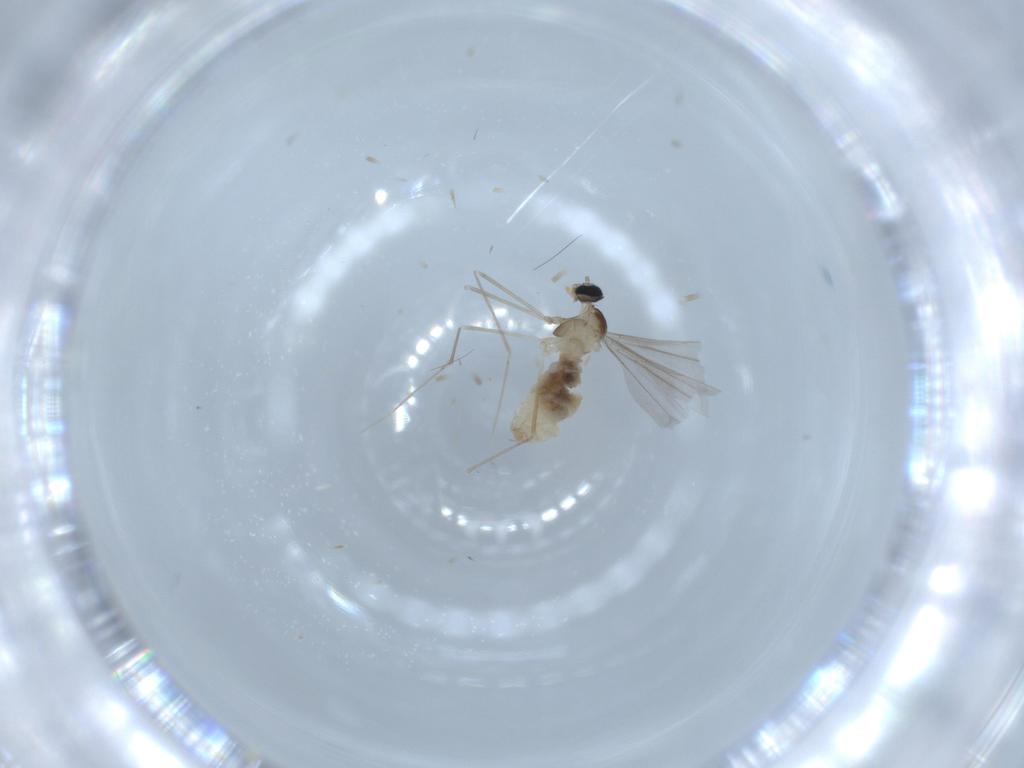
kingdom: Animalia
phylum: Arthropoda
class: Insecta
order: Diptera
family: Cecidomyiidae
